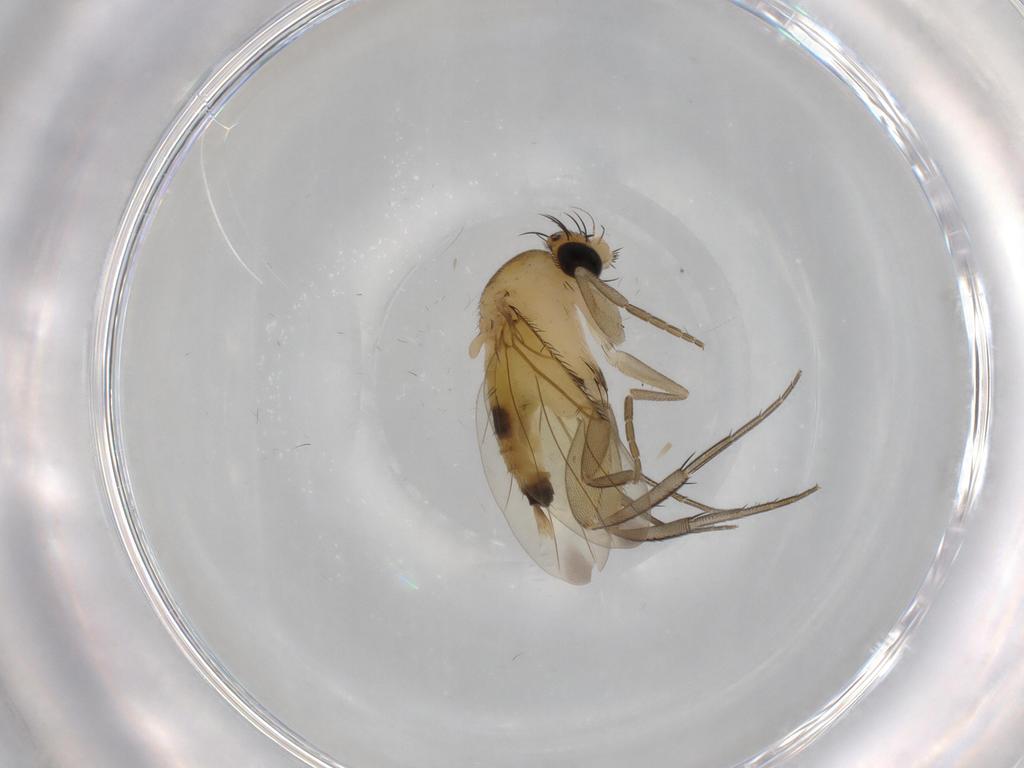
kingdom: Animalia
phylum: Arthropoda
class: Insecta
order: Diptera
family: Phoridae
